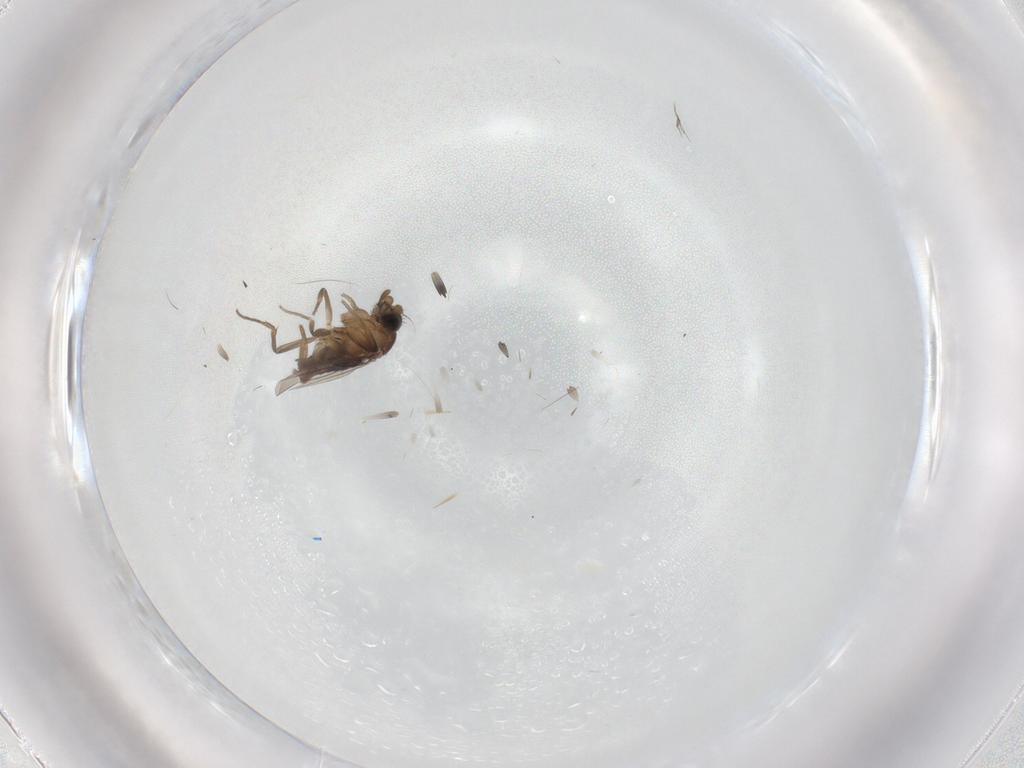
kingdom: Animalia
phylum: Arthropoda
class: Insecta
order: Diptera
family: Sciaridae
